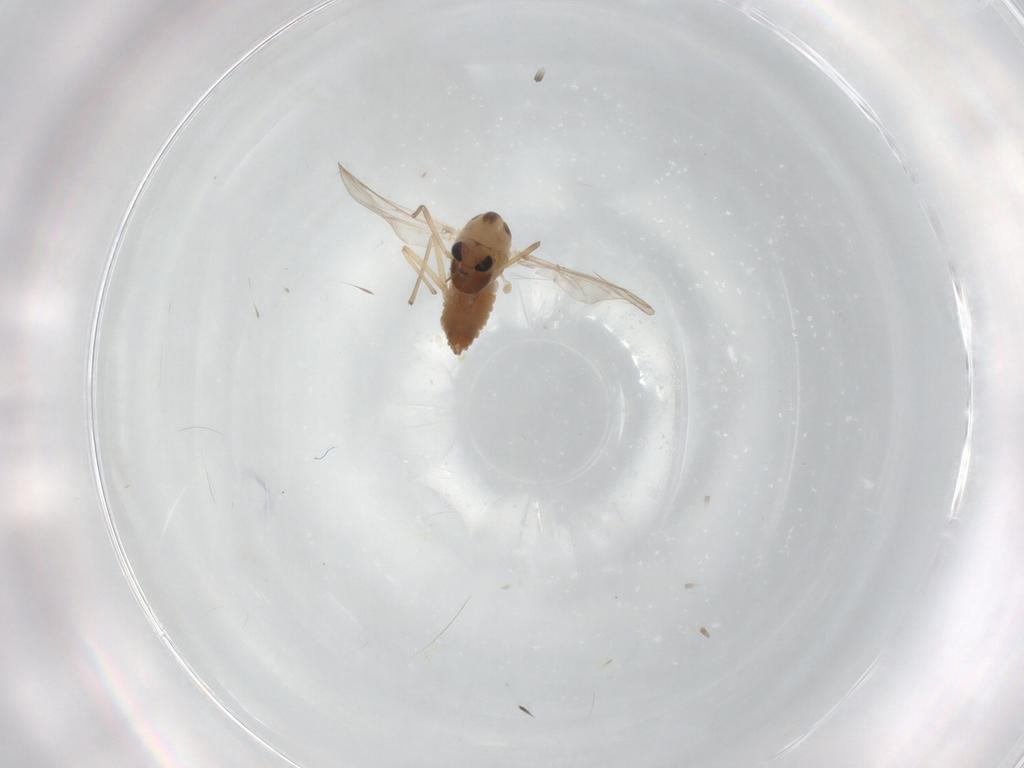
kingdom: Animalia
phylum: Arthropoda
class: Insecta
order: Diptera
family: Chironomidae
